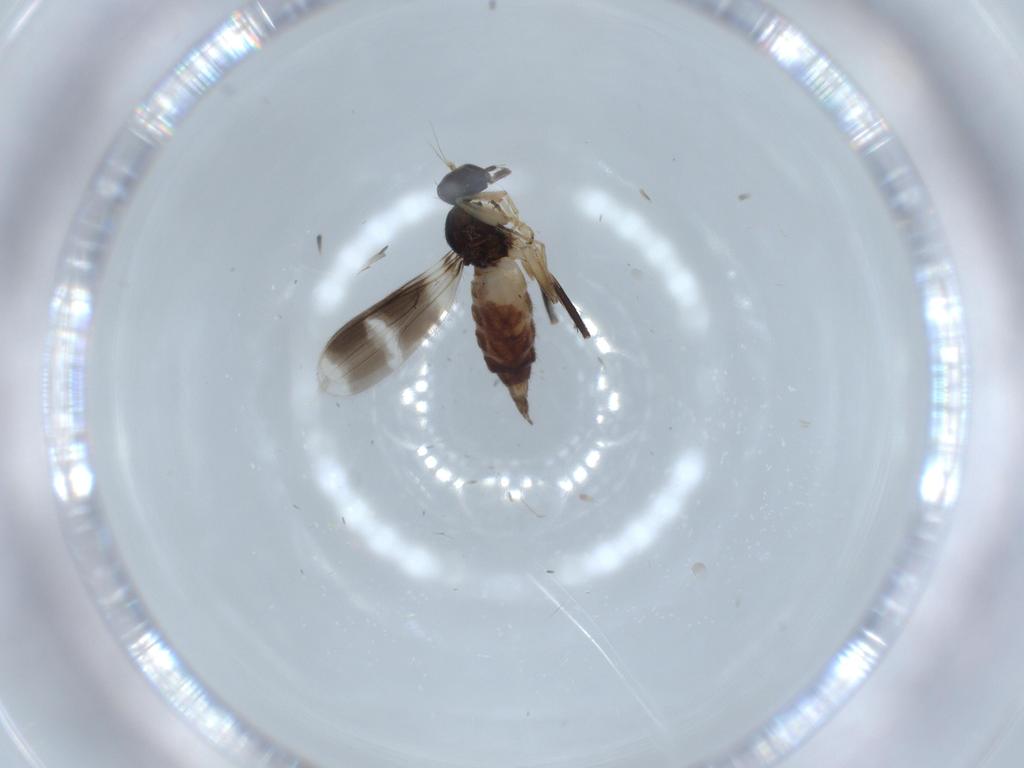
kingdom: Animalia
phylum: Arthropoda
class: Insecta
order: Diptera
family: Hybotidae
